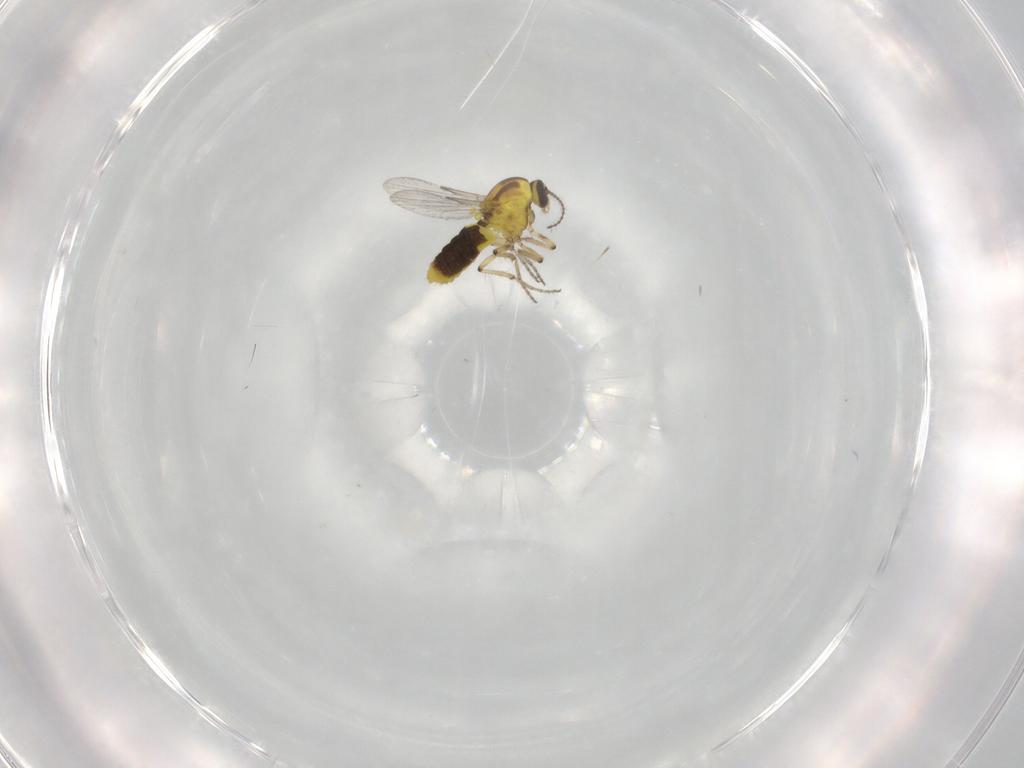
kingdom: Animalia
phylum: Arthropoda
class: Insecta
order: Diptera
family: Ceratopogonidae
